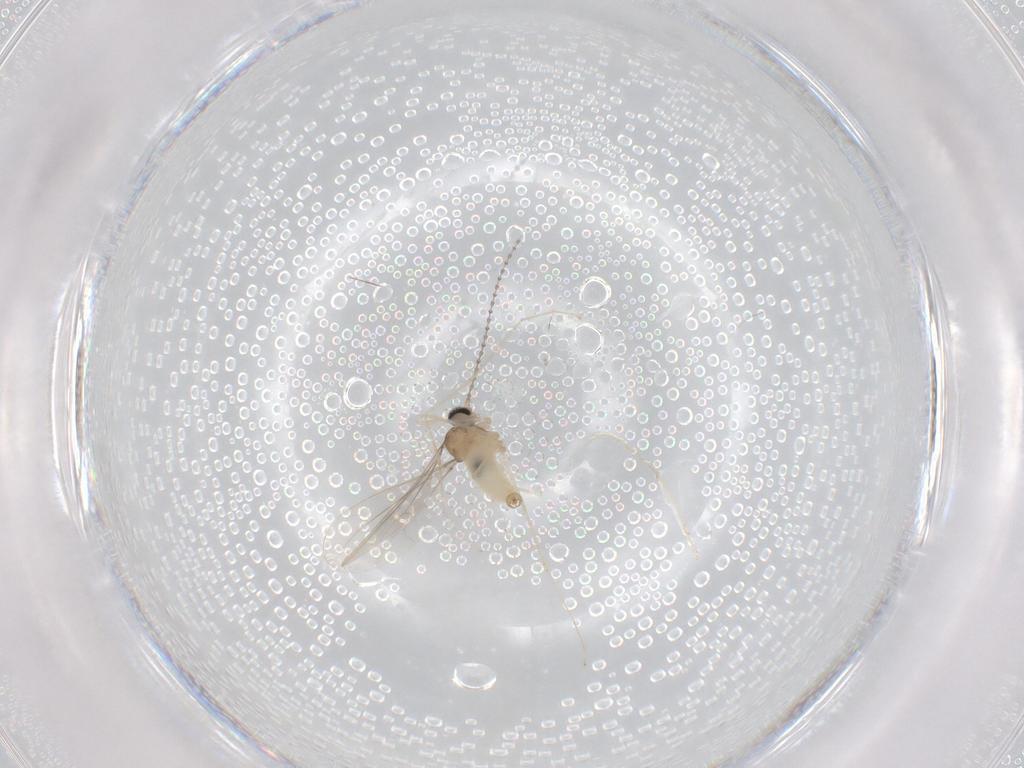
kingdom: Animalia
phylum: Arthropoda
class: Insecta
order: Diptera
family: Cecidomyiidae
